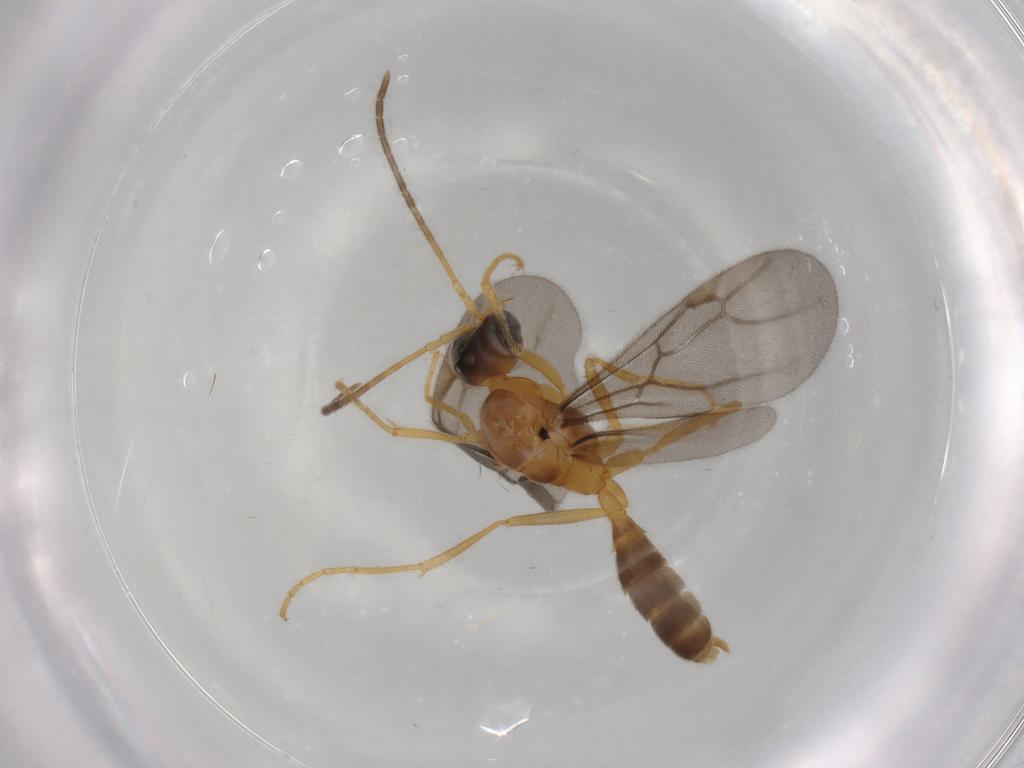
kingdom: Animalia
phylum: Arthropoda
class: Insecta
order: Hymenoptera
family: Formicidae
